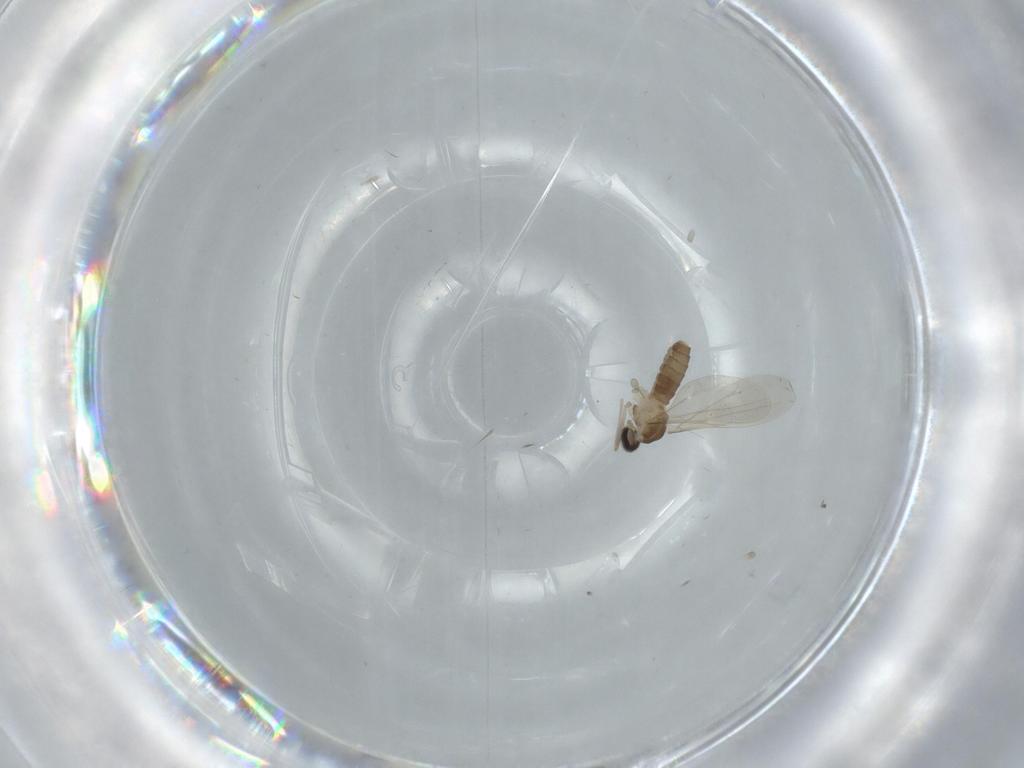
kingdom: Animalia
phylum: Arthropoda
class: Insecta
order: Diptera
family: Cecidomyiidae
